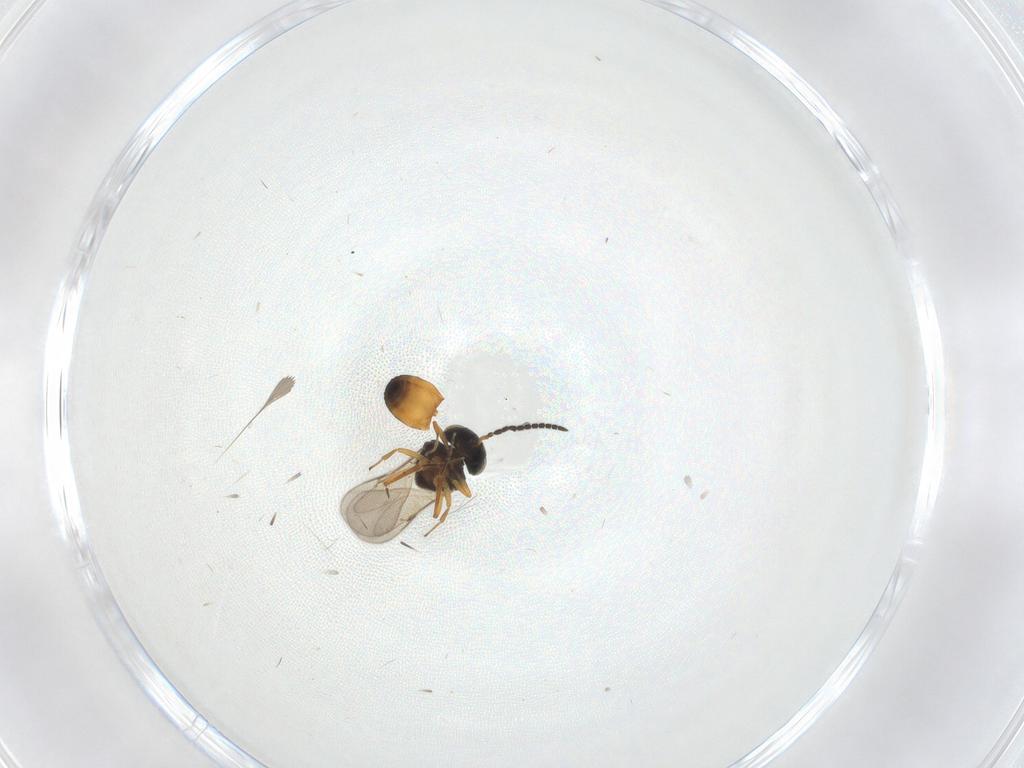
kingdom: Animalia
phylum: Arthropoda
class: Insecta
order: Hymenoptera
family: Scelionidae
